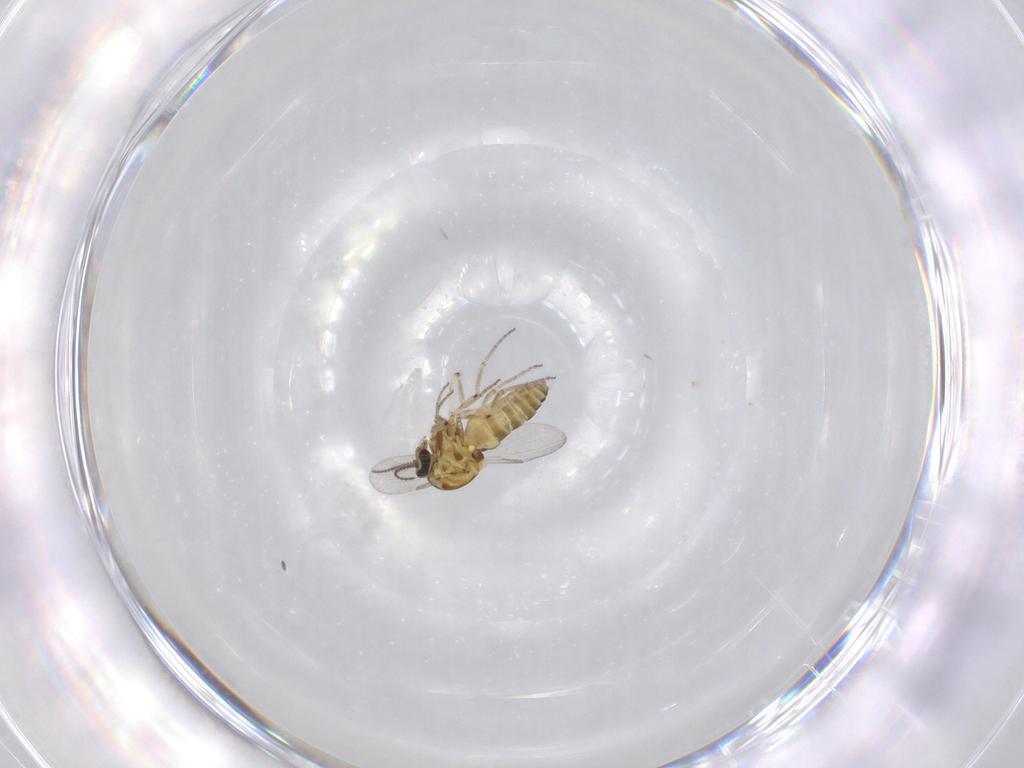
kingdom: Animalia
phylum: Arthropoda
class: Insecta
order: Diptera
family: Ceratopogonidae
